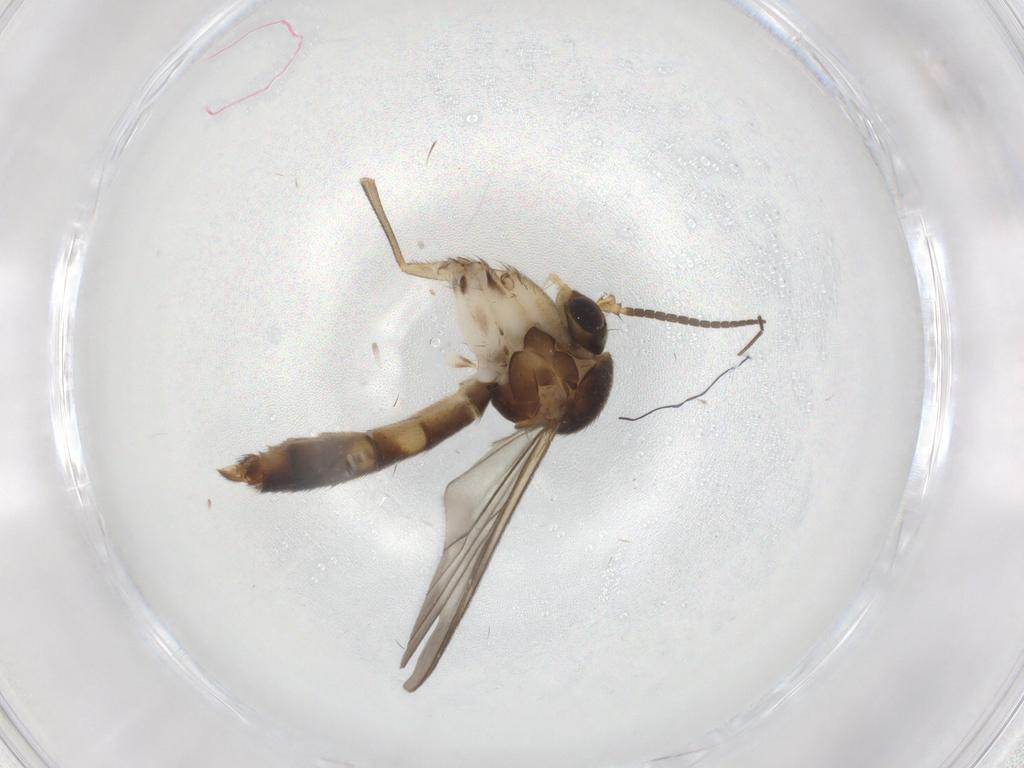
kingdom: Animalia
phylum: Arthropoda
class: Insecta
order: Diptera
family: Mycetophilidae
